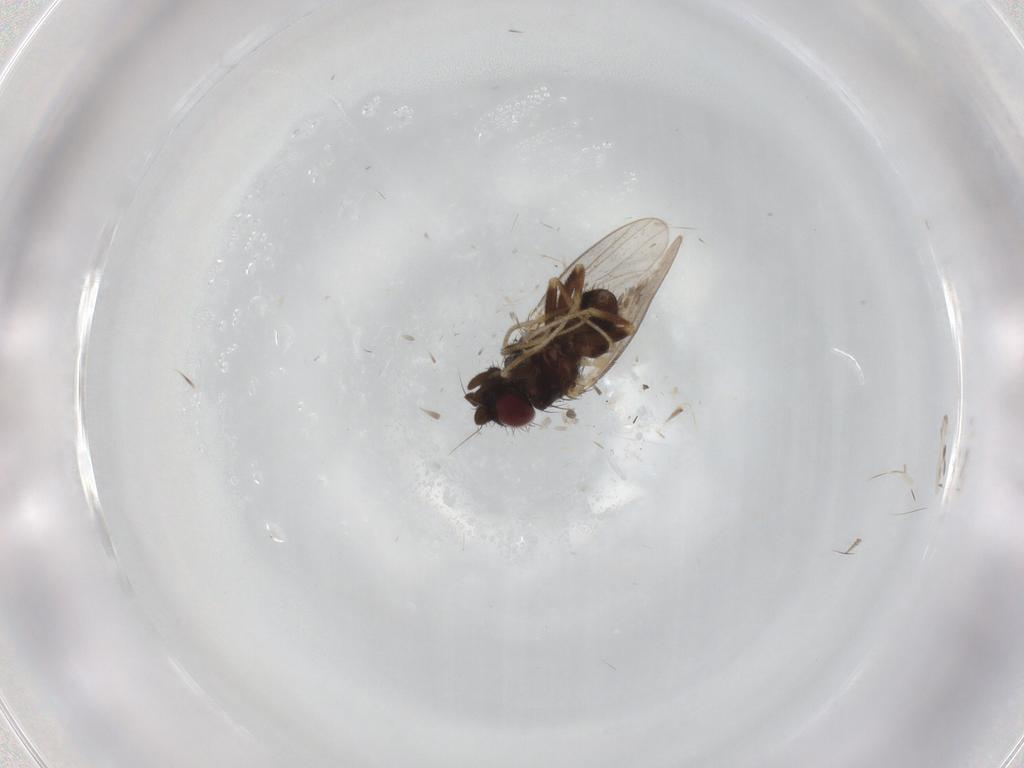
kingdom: Animalia
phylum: Arthropoda
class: Insecta
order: Diptera
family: Milichiidae
